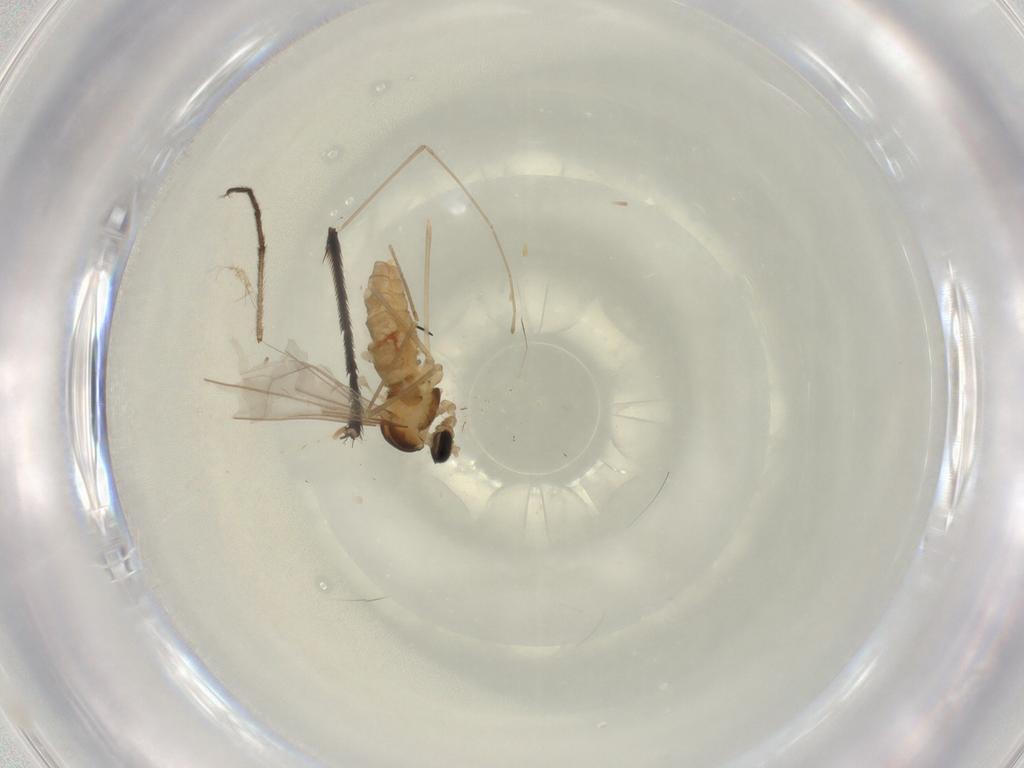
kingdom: Animalia
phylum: Arthropoda
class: Insecta
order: Diptera
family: Cecidomyiidae
